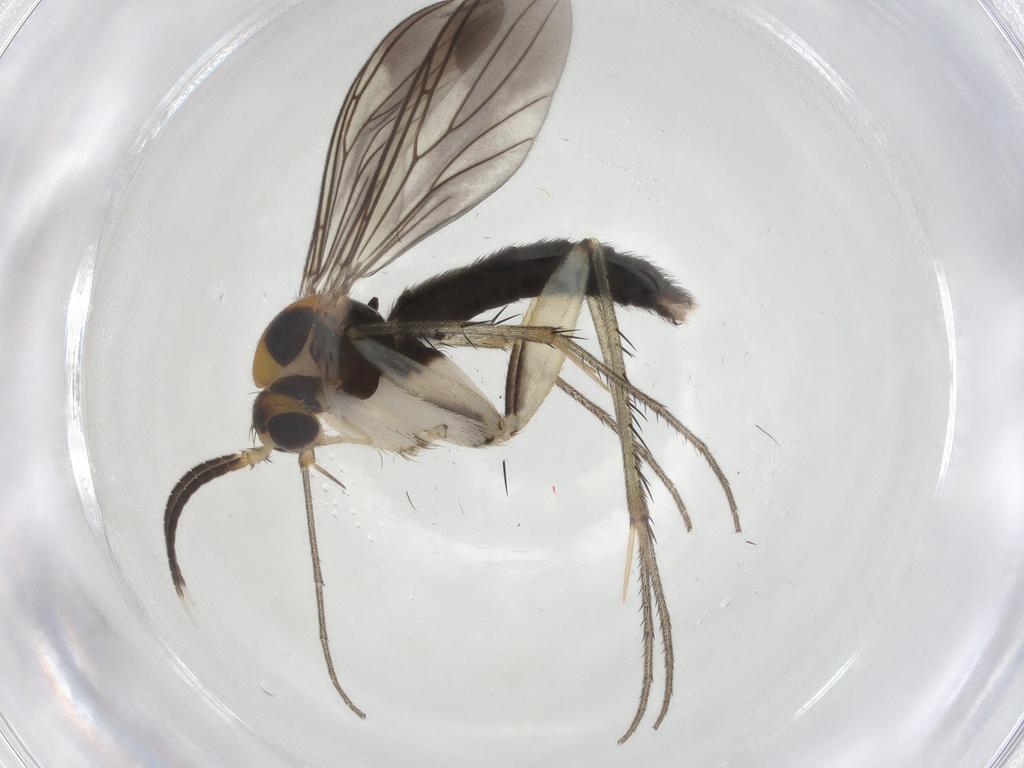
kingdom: Animalia
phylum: Arthropoda
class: Insecta
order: Diptera
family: Mycetophilidae
